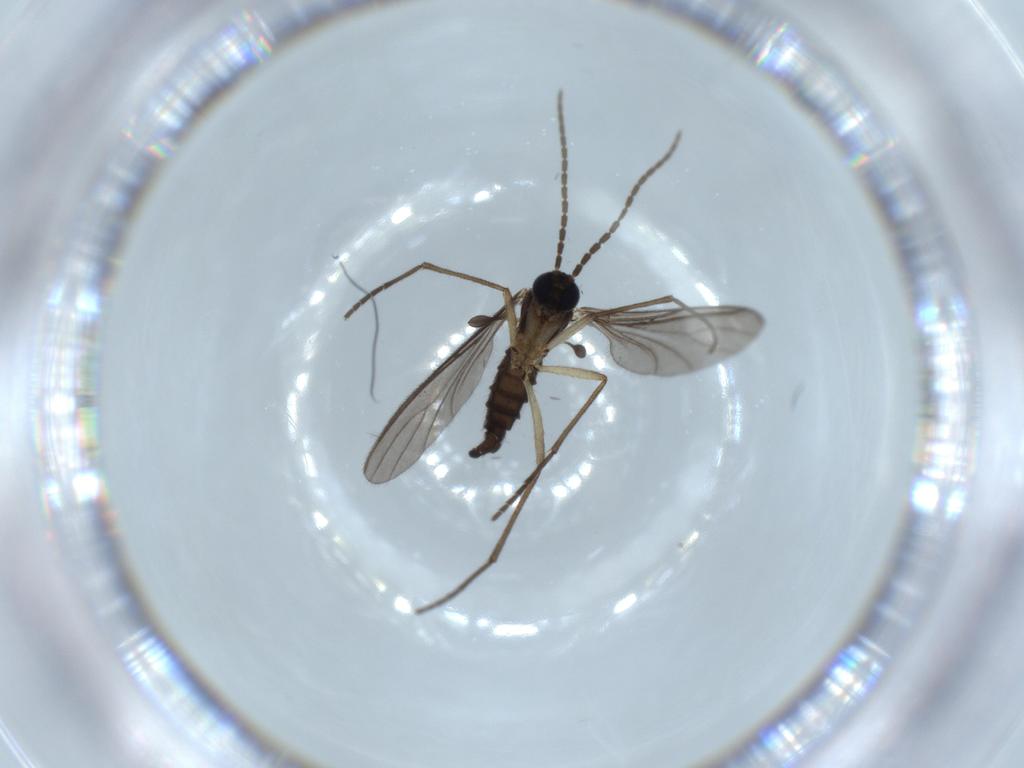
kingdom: Animalia
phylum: Arthropoda
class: Insecta
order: Diptera
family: Sciaridae
